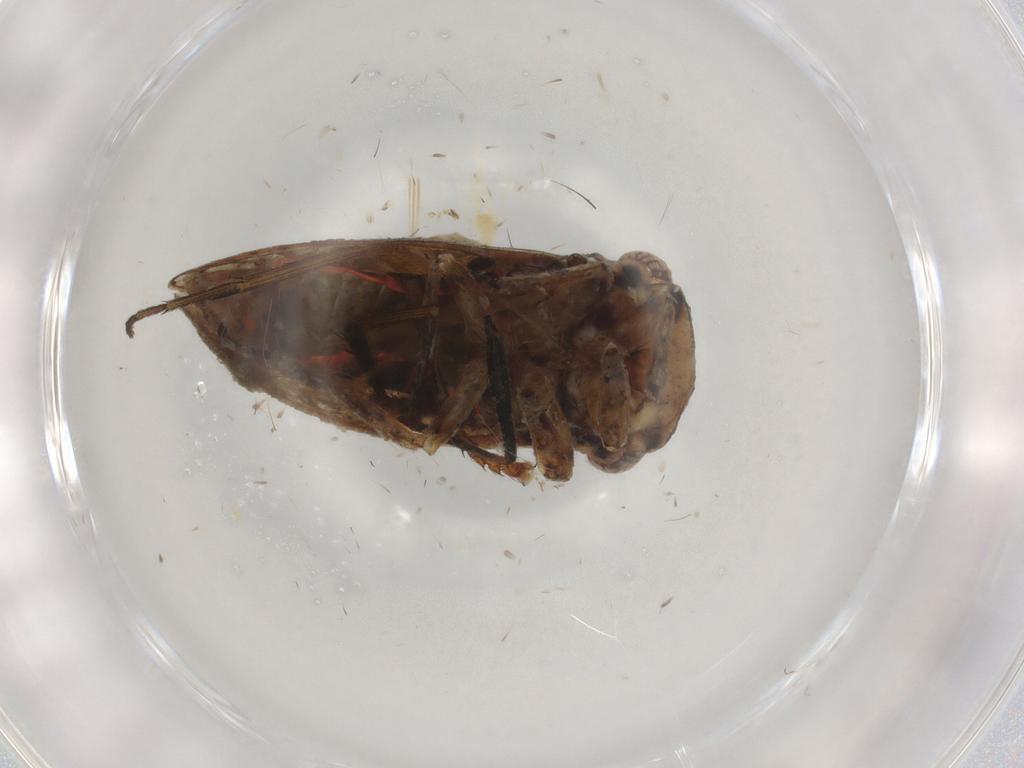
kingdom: Animalia
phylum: Arthropoda
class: Insecta
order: Hemiptera
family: Cicadellidae
